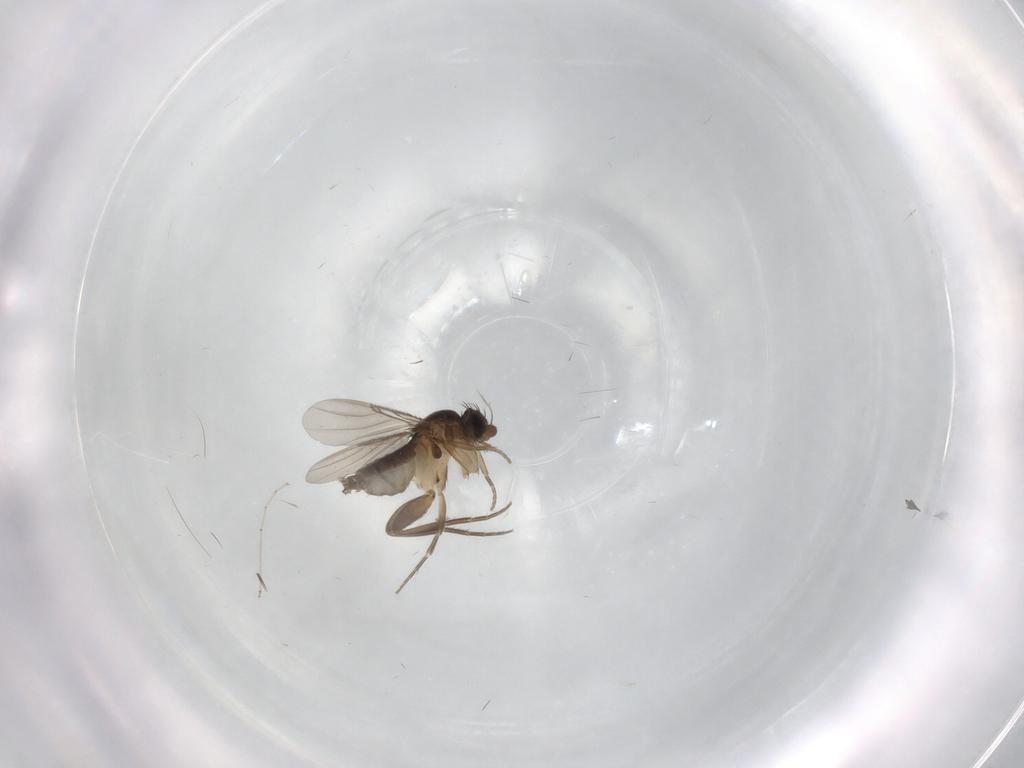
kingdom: Animalia
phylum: Arthropoda
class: Insecta
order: Diptera
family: Phoridae
